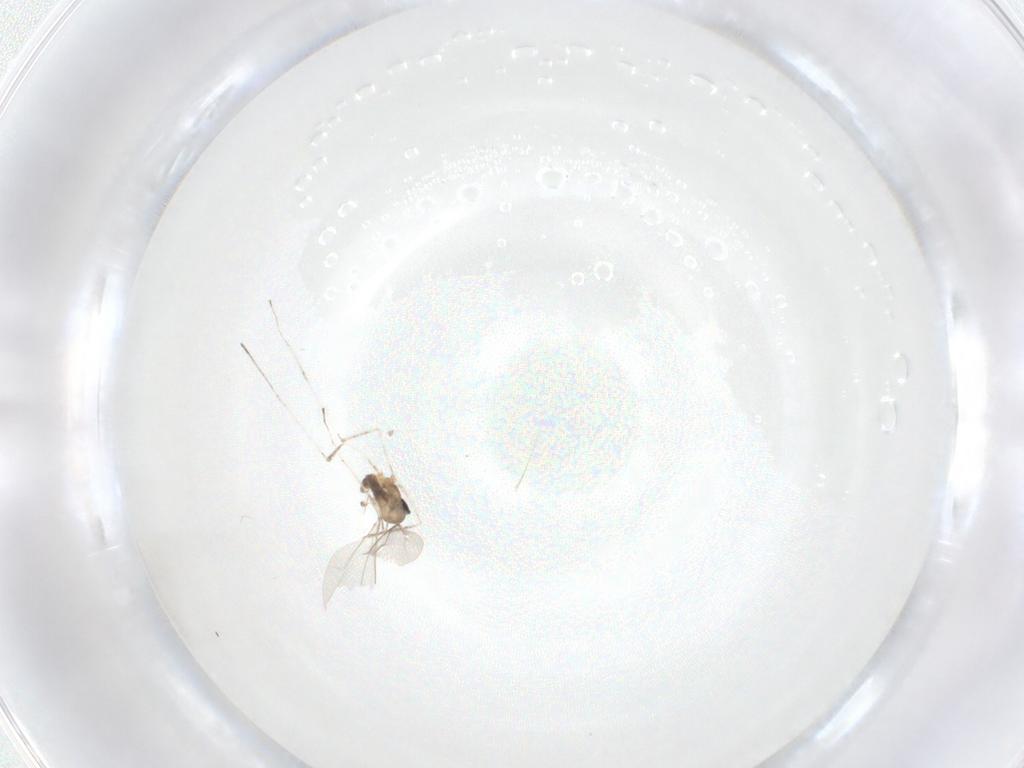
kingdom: Animalia
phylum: Arthropoda
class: Insecta
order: Diptera
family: Cecidomyiidae
